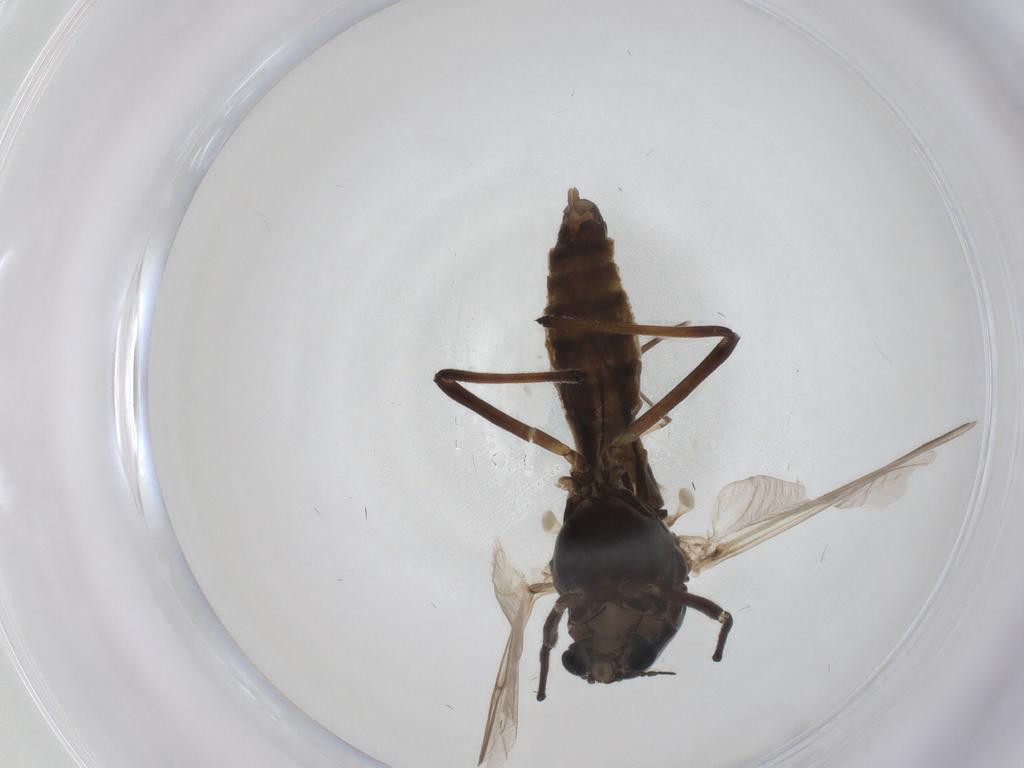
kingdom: Animalia
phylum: Arthropoda
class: Insecta
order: Diptera
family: Chironomidae
